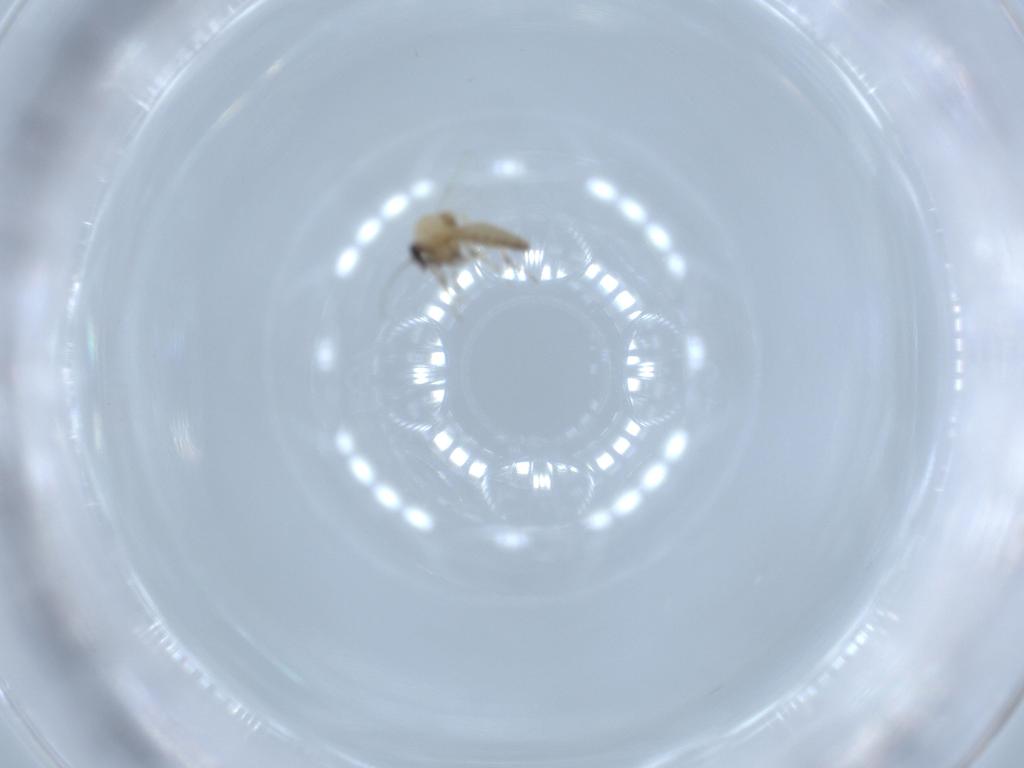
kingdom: Animalia
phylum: Arthropoda
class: Insecta
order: Diptera
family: Ceratopogonidae
